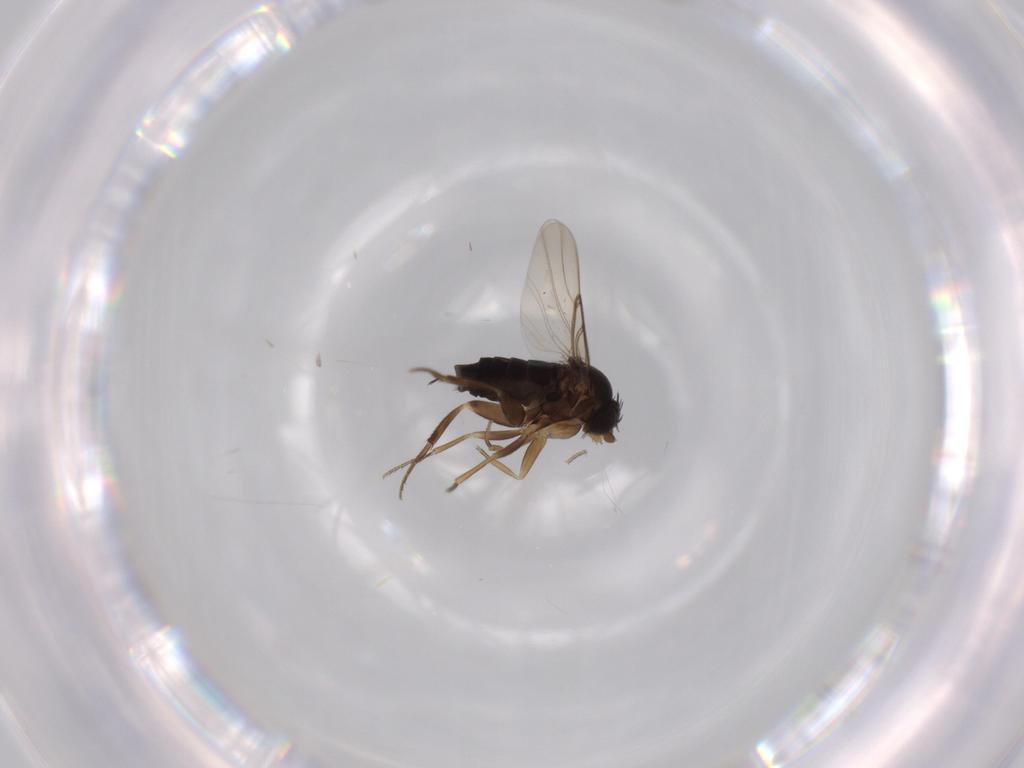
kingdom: Animalia
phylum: Arthropoda
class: Insecta
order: Diptera
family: Phoridae
